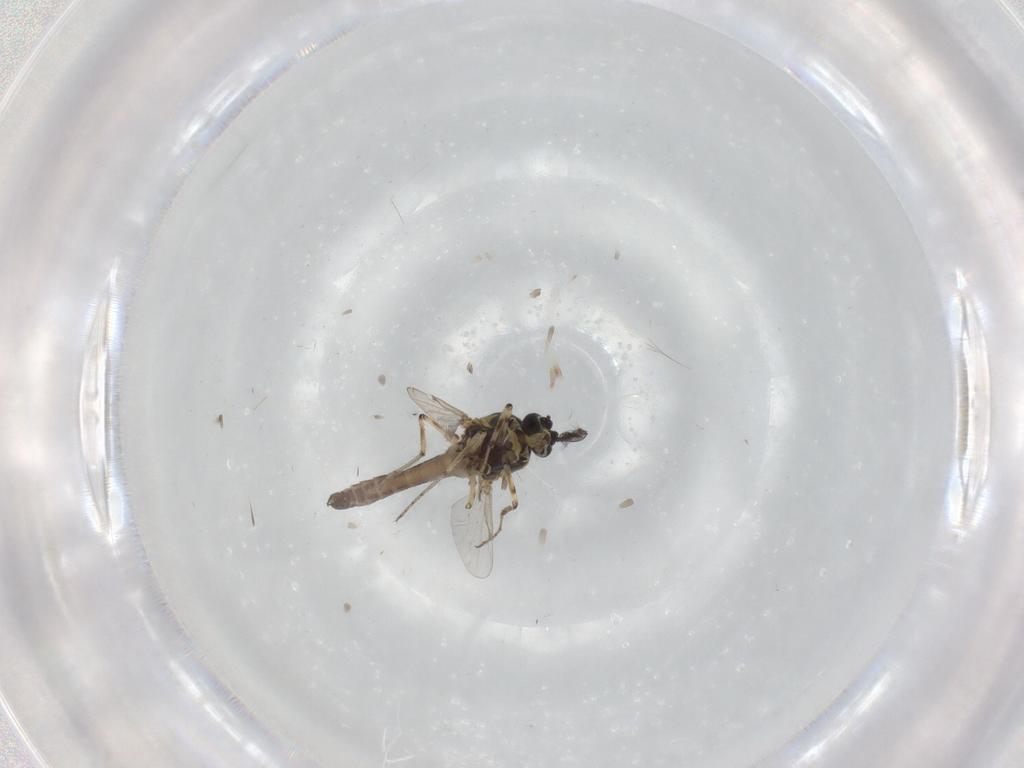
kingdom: Animalia
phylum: Arthropoda
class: Insecta
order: Diptera
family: Ceratopogonidae
